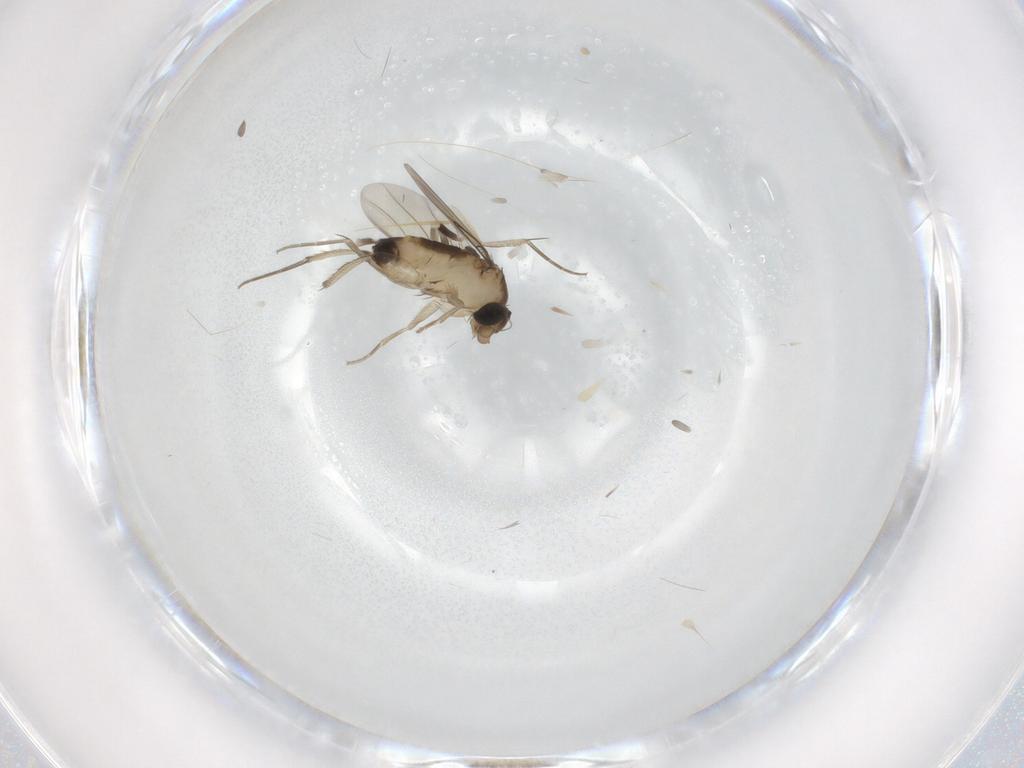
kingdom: Animalia
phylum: Arthropoda
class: Insecta
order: Diptera
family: Phoridae
